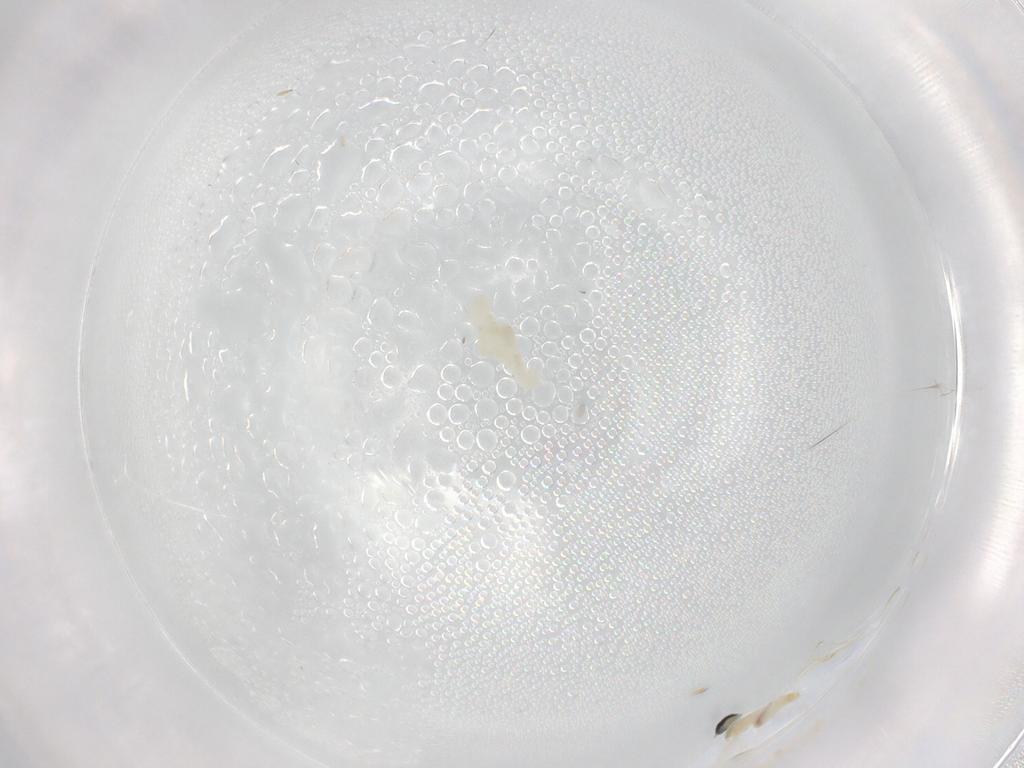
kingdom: Animalia
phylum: Arthropoda
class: Insecta
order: Diptera
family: Cecidomyiidae
